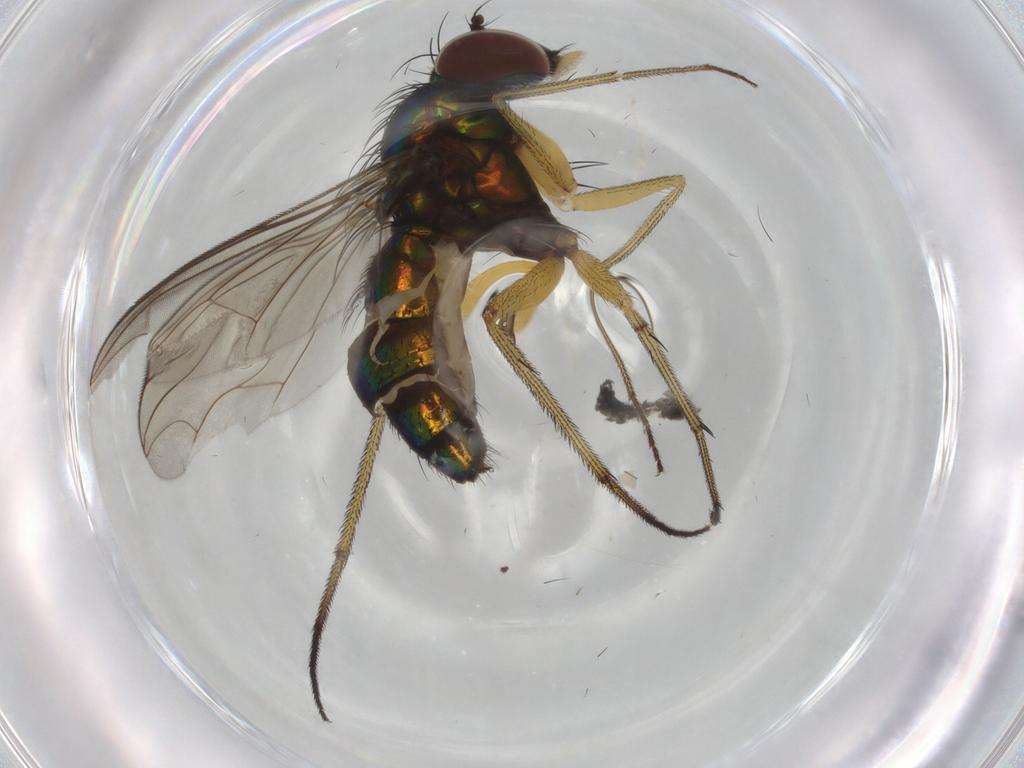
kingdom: Animalia
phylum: Arthropoda
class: Insecta
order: Diptera
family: Dolichopodidae
